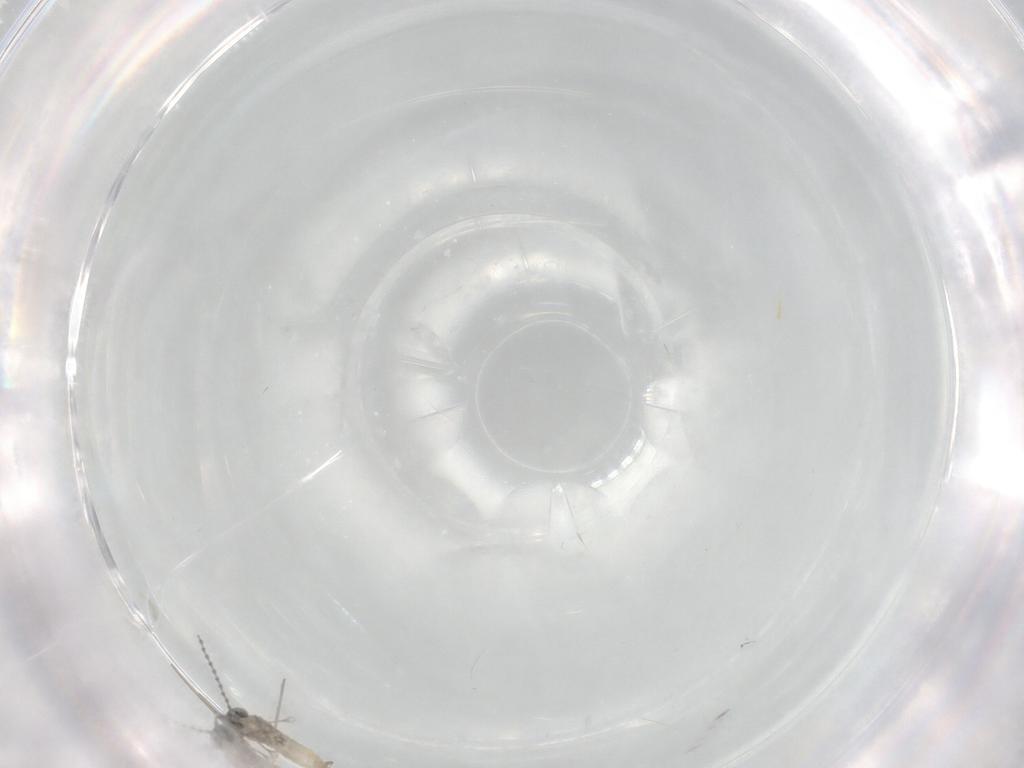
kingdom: Animalia
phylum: Arthropoda
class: Insecta
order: Diptera
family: Cecidomyiidae
